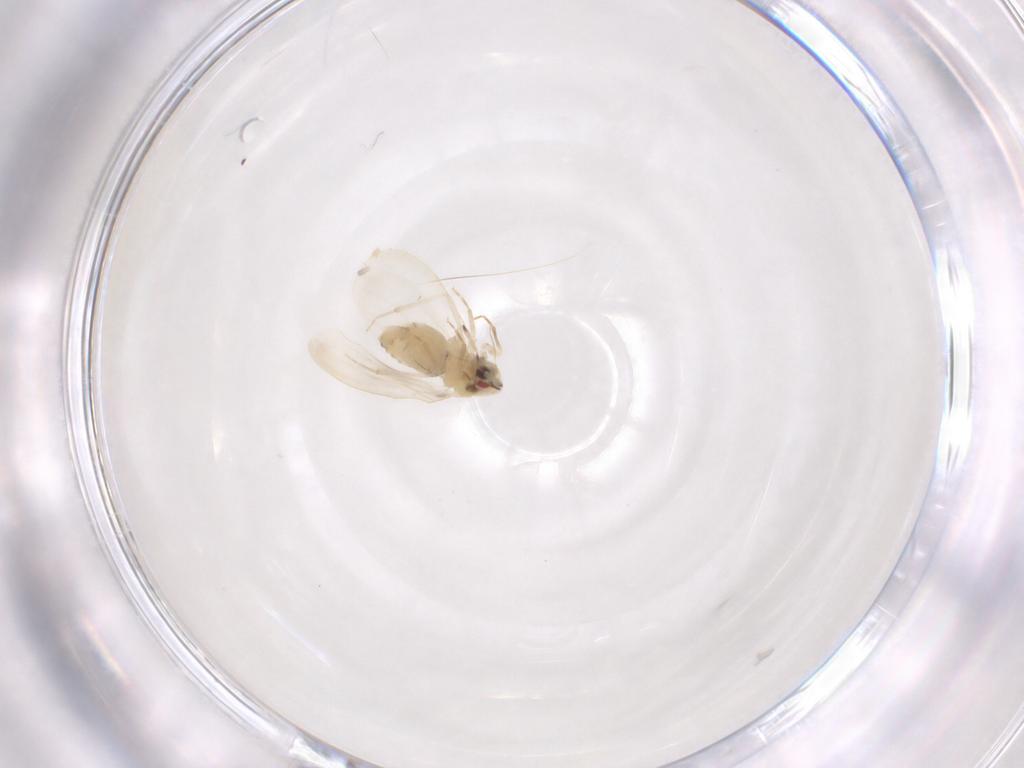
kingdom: Animalia
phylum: Arthropoda
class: Insecta
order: Hemiptera
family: Aleyrodidae
